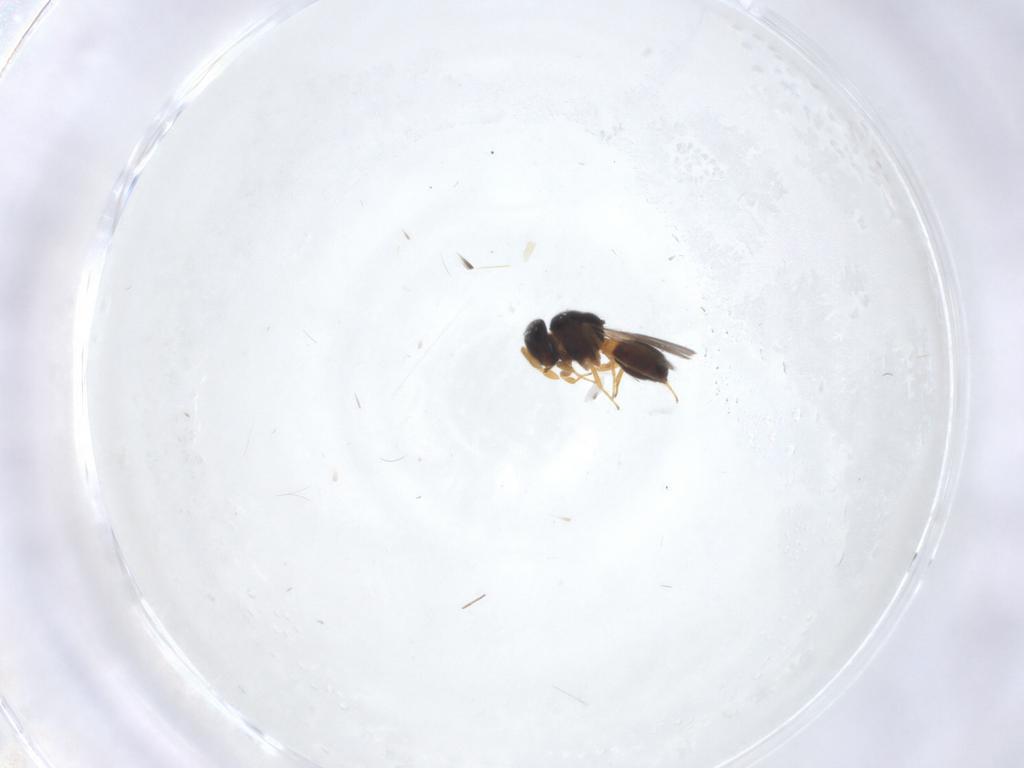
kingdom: Animalia
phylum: Arthropoda
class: Insecta
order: Hymenoptera
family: Scelionidae
